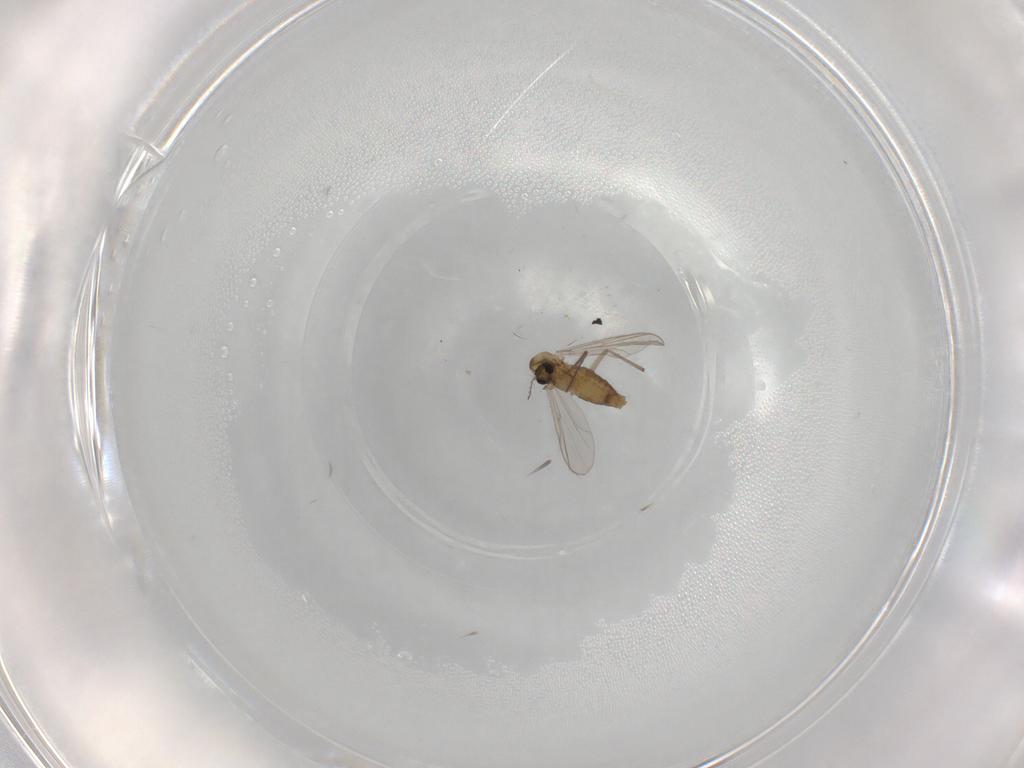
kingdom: Animalia
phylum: Arthropoda
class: Insecta
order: Diptera
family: Chironomidae
